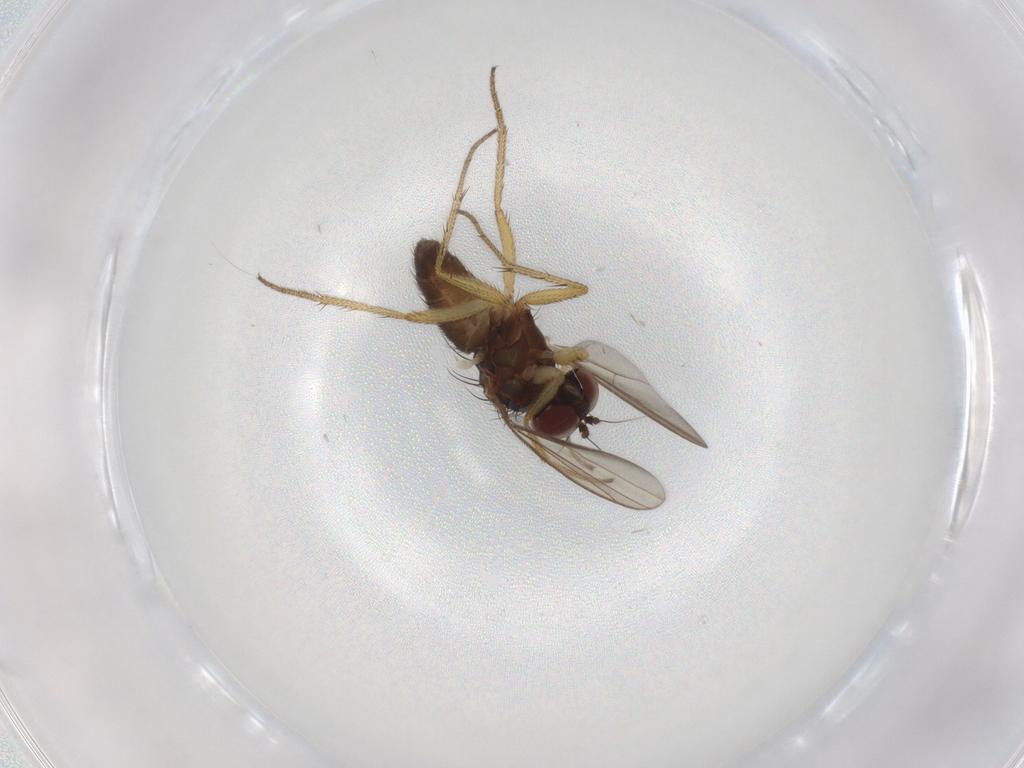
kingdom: Animalia
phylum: Arthropoda
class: Insecta
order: Diptera
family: Dolichopodidae
